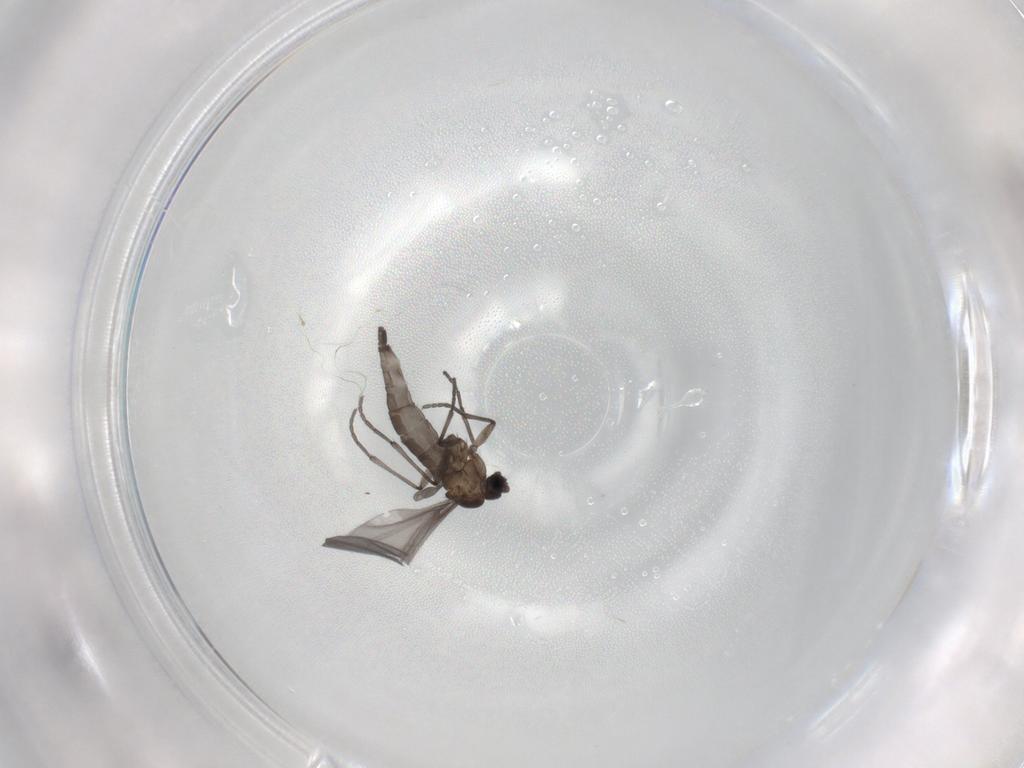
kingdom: Animalia
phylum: Arthropoda
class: Insecta
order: Diptera
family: Sciaridae
